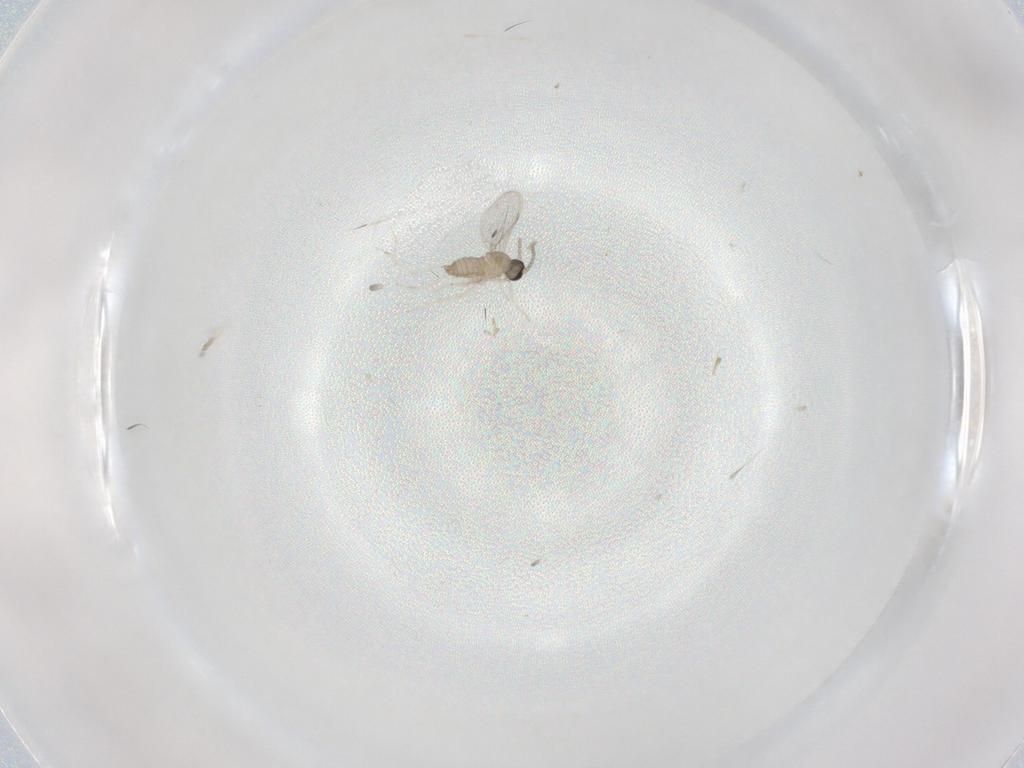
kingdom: Animalia
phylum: Arthropoda
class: Insecta
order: Diptera
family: Cecidomyiidae
